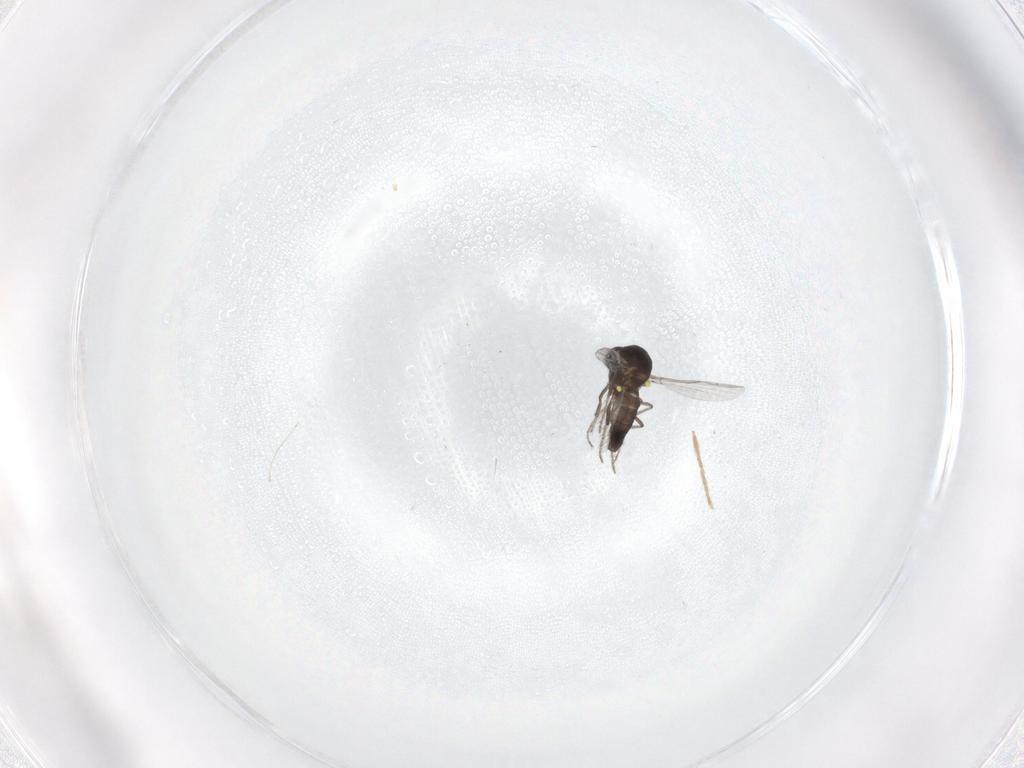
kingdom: Animalia
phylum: Arthropoda
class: Insecta
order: Diptera
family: Ceratopogonidae
